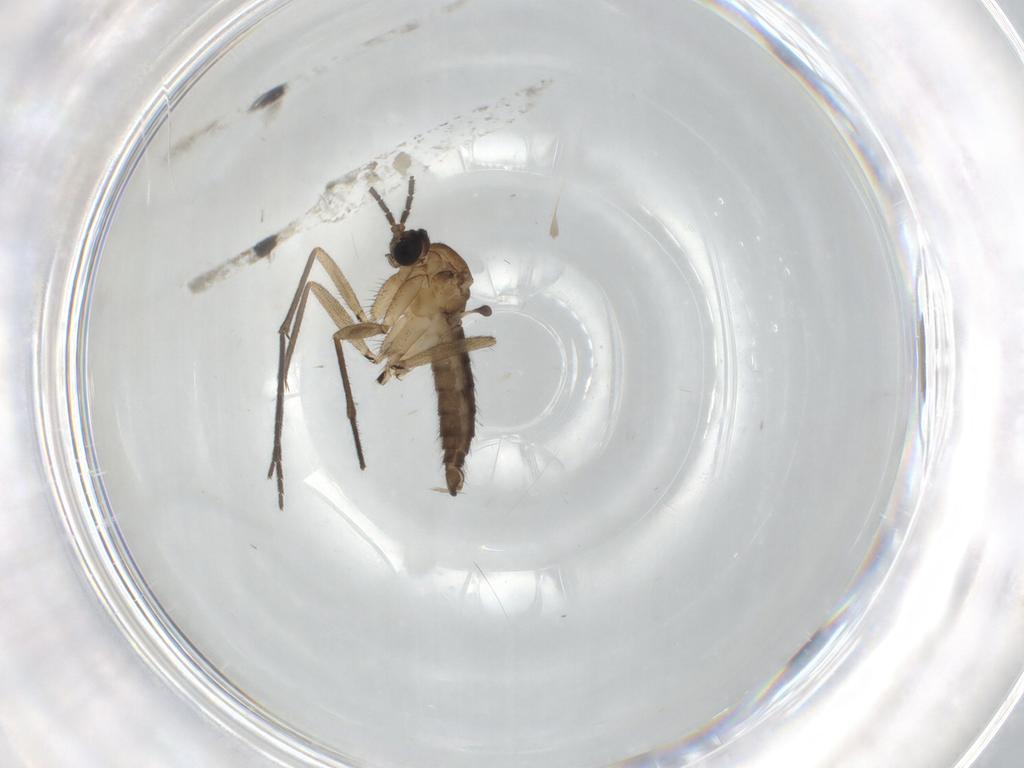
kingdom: Animalia
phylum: Arthropoda
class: Insecta
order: Diptera
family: Sciaridae
